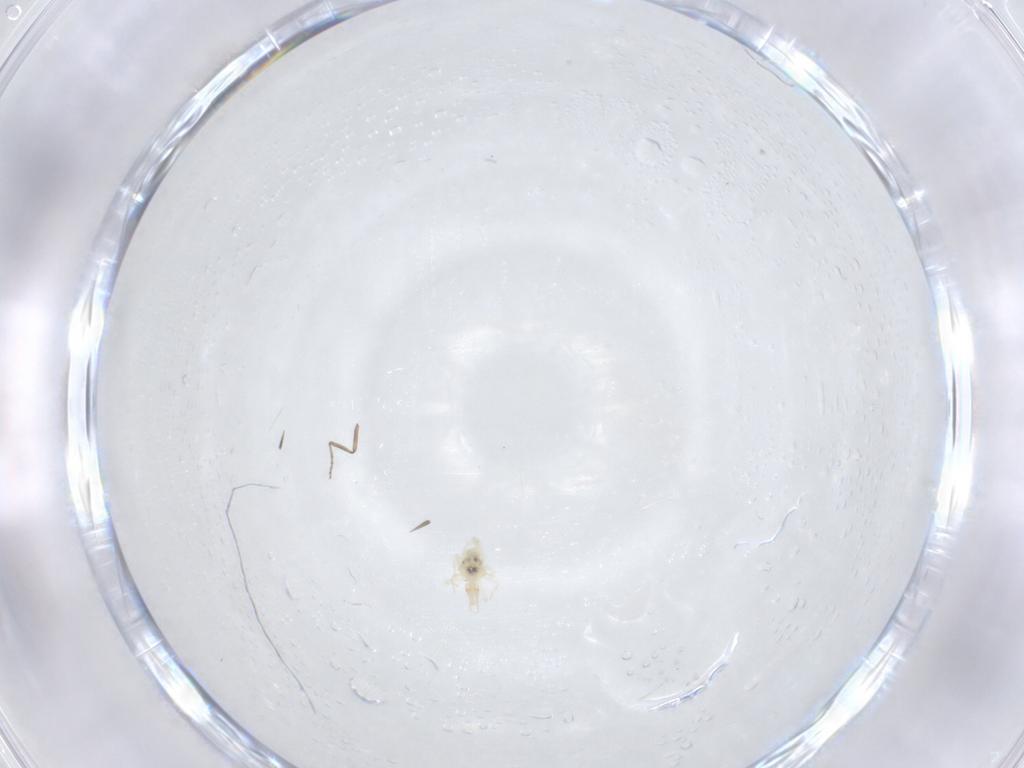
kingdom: Animalia
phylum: Arthropoda
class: Insecta
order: Diptera
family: Ceratopogonidae
